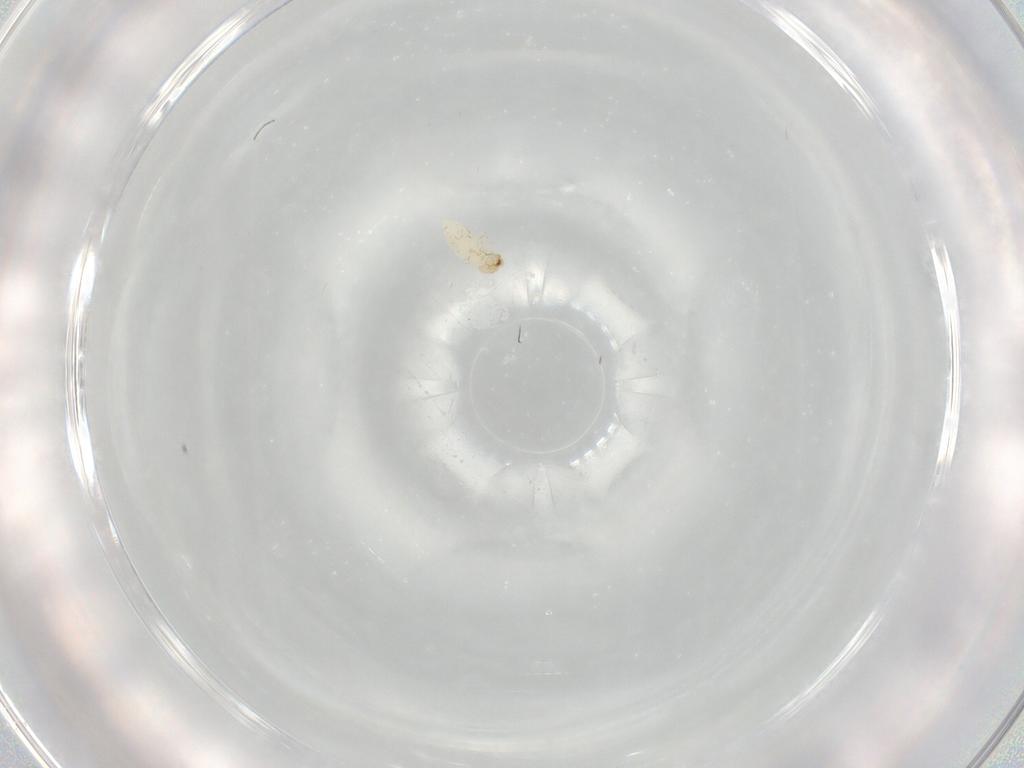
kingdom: Animalia
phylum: Arthropoda
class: Insecta
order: Coleoptera
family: Chrysomelidae
